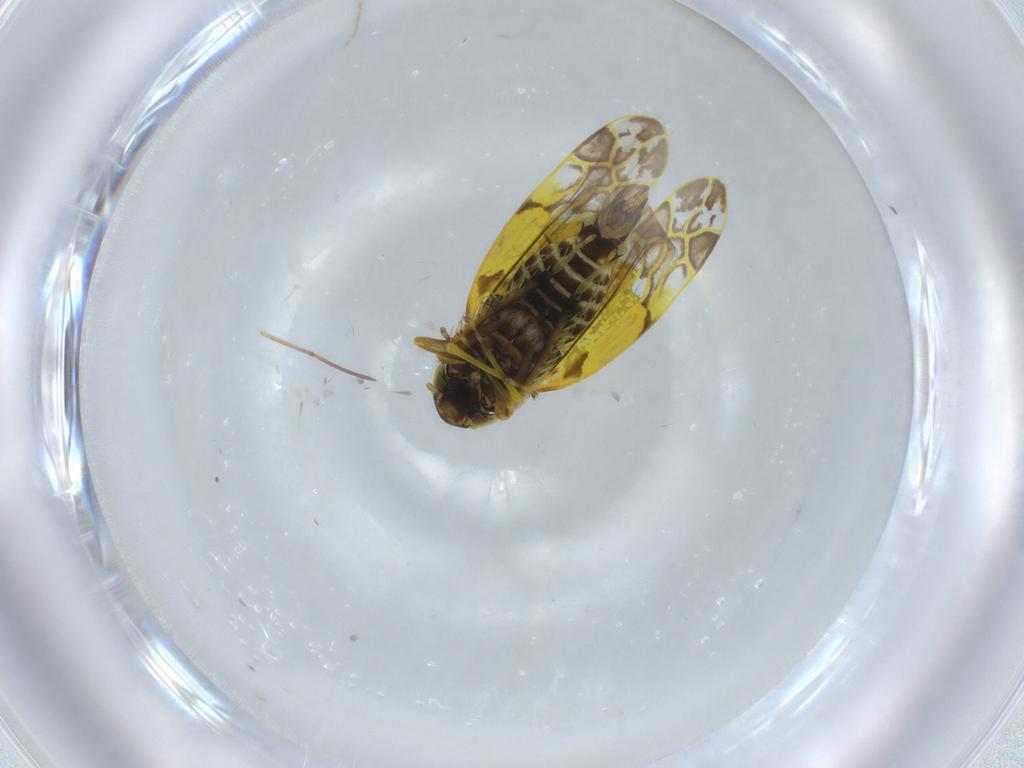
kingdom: Animalia
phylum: Arthropoda
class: Insecta
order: Hemiptera
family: Cicadellidae
